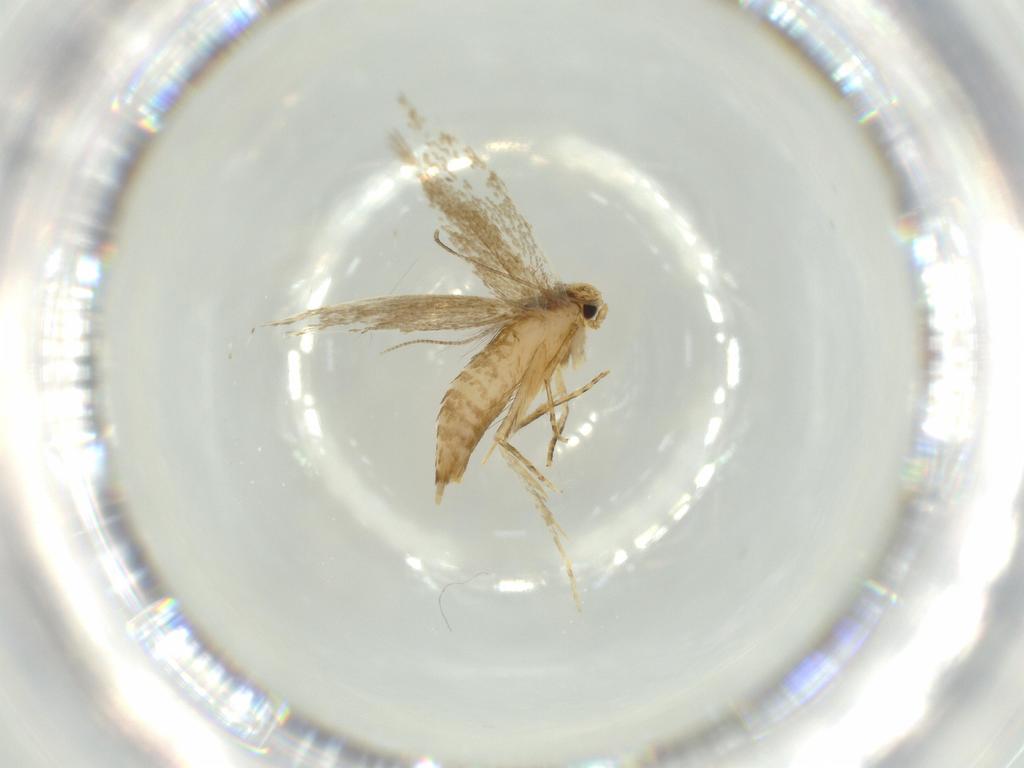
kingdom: Animalia
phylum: Arthropoda
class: Insecta
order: Lepidoptera
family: Tineidae
